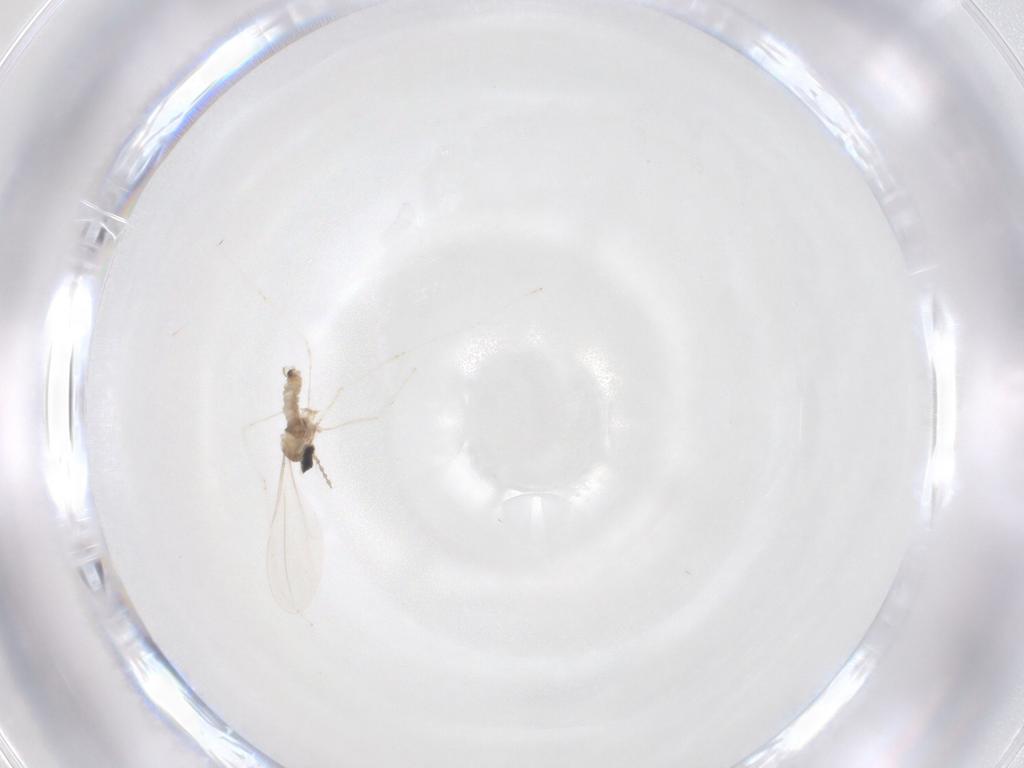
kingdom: Animalia
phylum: Arthropoda
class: Insecta
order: Diptera
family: Cecidomyiidae
